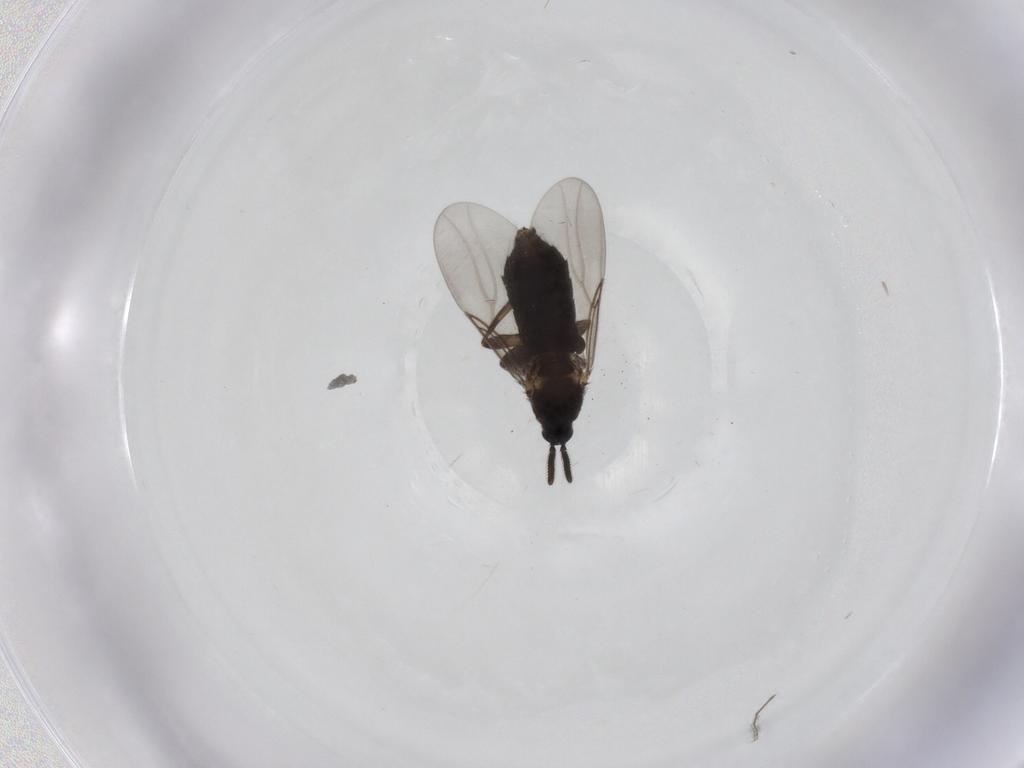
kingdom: Animalia
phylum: Arthropoda
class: Insecta
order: Diptera
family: Scatopsidae
